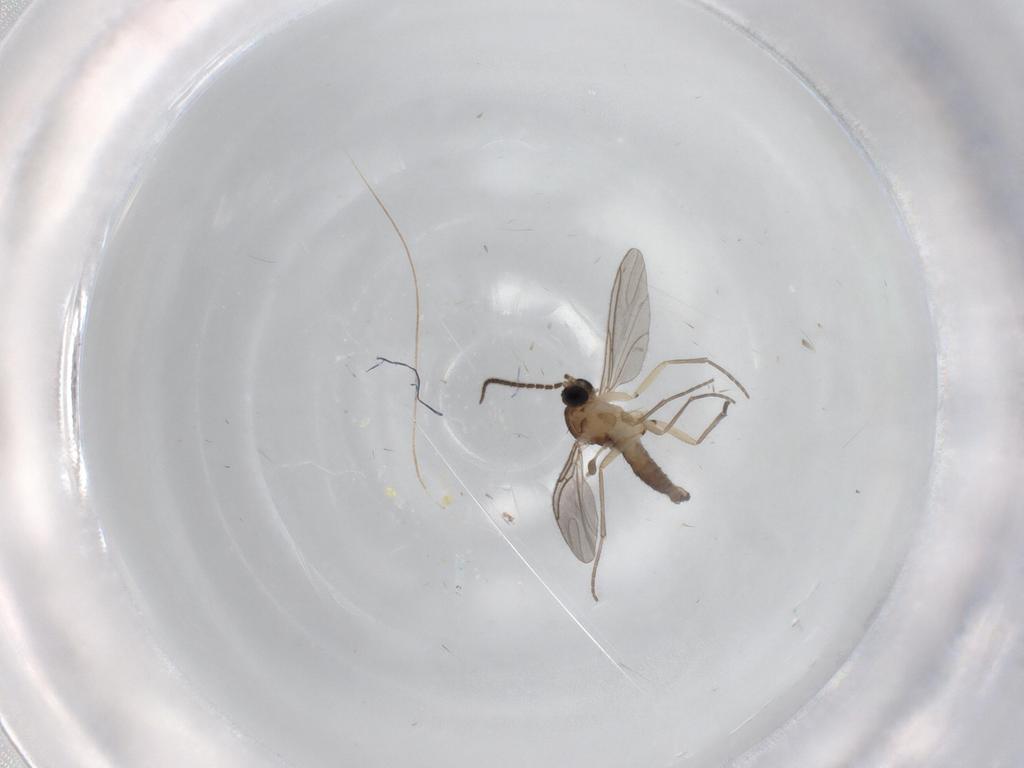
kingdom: Animalia
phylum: Arthropoda
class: Insecta
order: Diptera
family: Sciaridae
